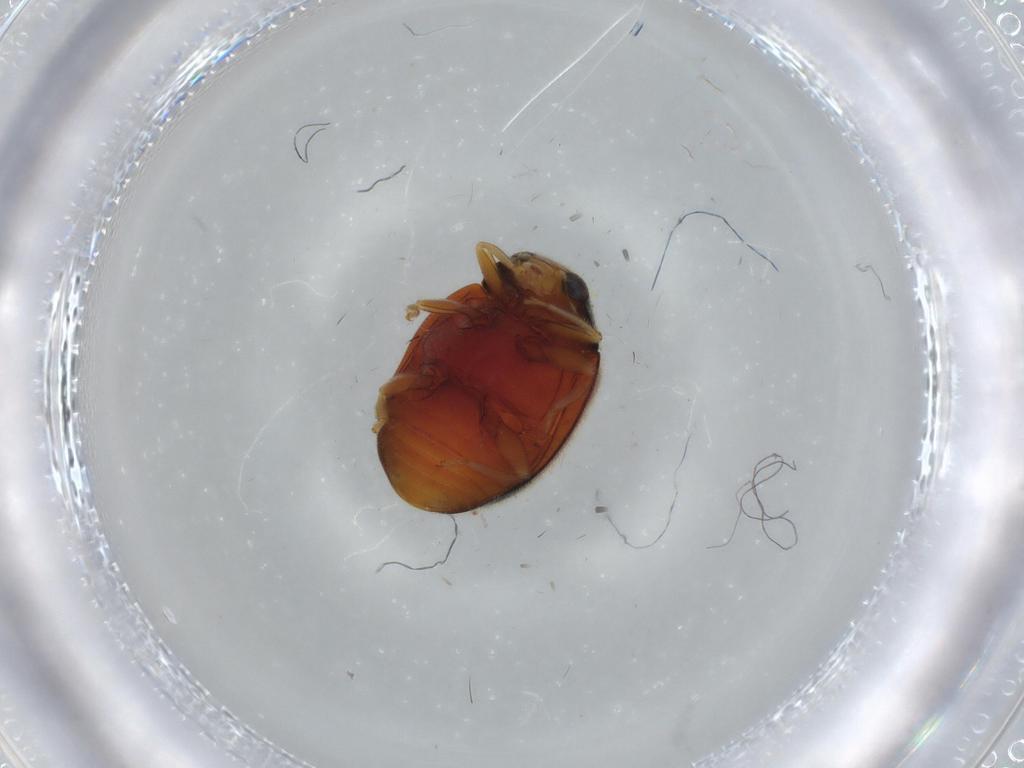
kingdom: Animalia
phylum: Arthropoda
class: Insecta
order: Coleoptera
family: Coccinellidae
